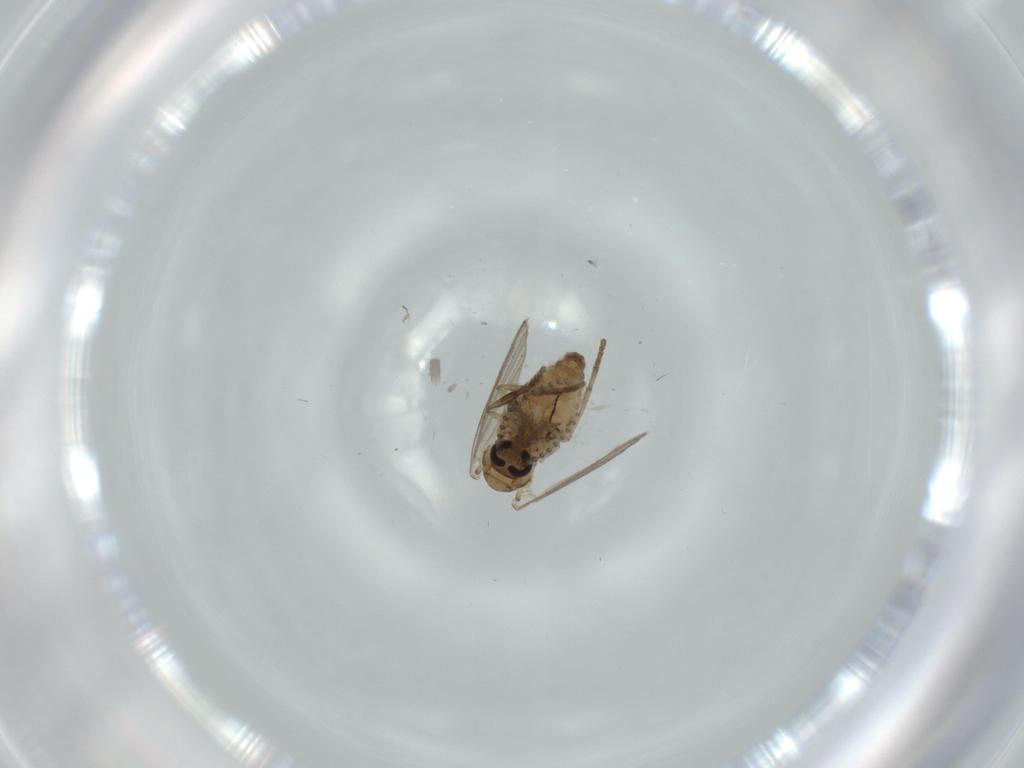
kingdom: Animalia
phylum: Arthropoda
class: Insecta
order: Diptera
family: Psychodidae
